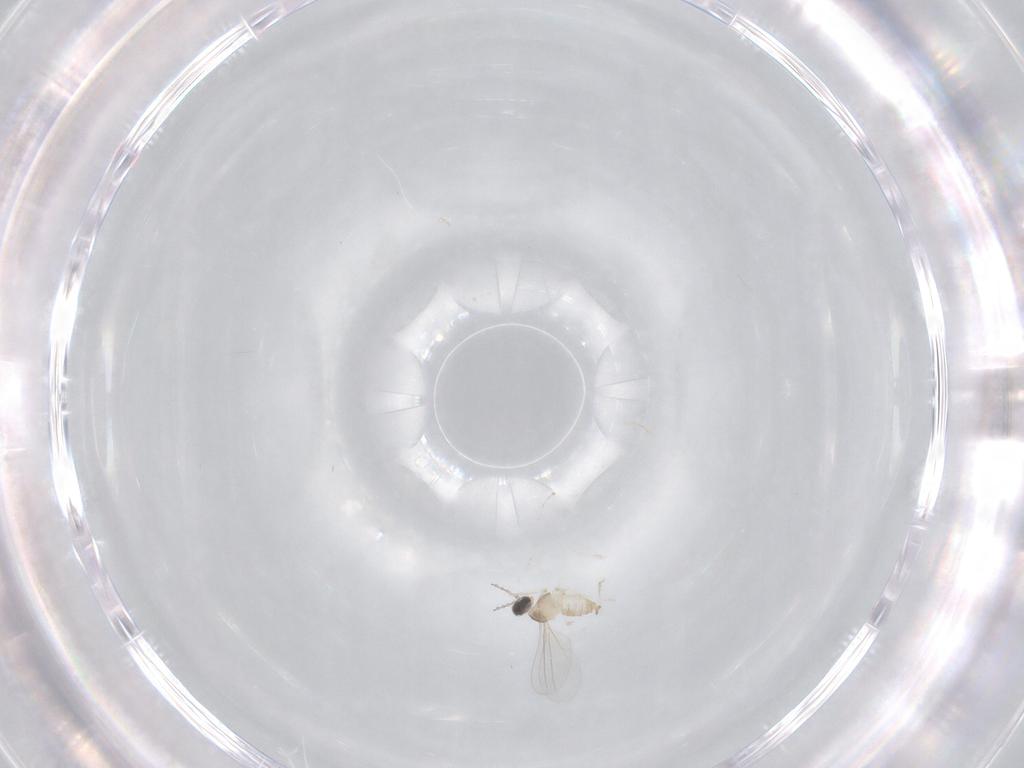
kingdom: Animalia
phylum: Arthropoda
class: Insecta
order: Diptera
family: Cecidomyiidae
